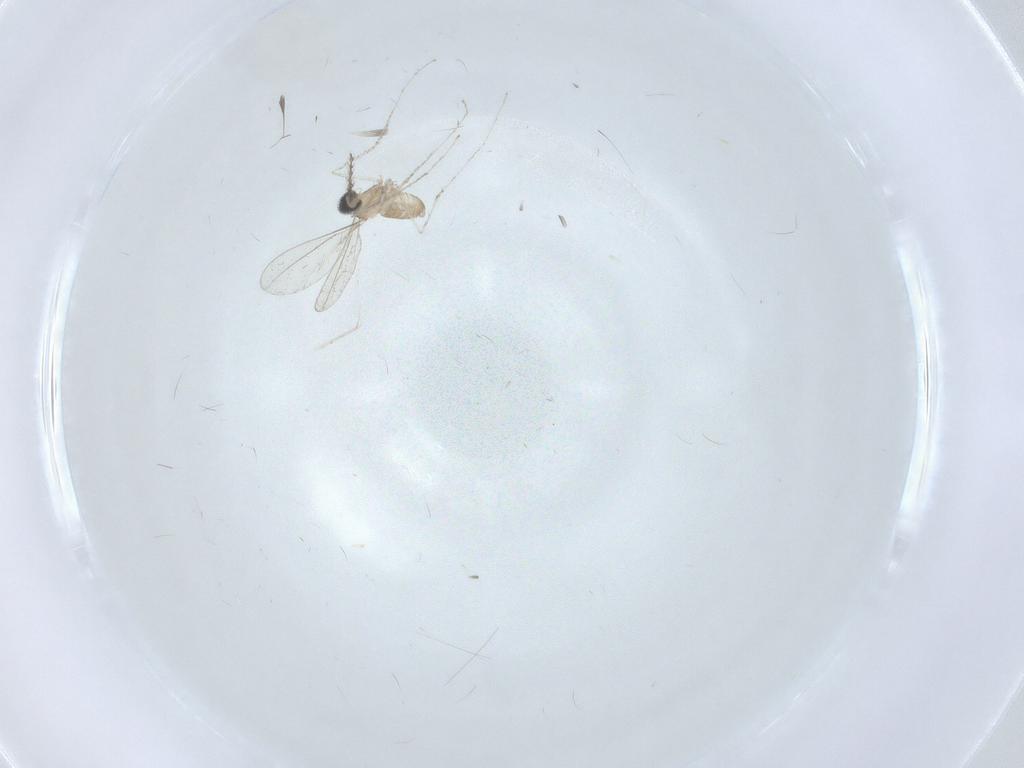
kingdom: Animalia
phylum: Arthropoda
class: Insecta
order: Diptera
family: Cecidomyiidae
